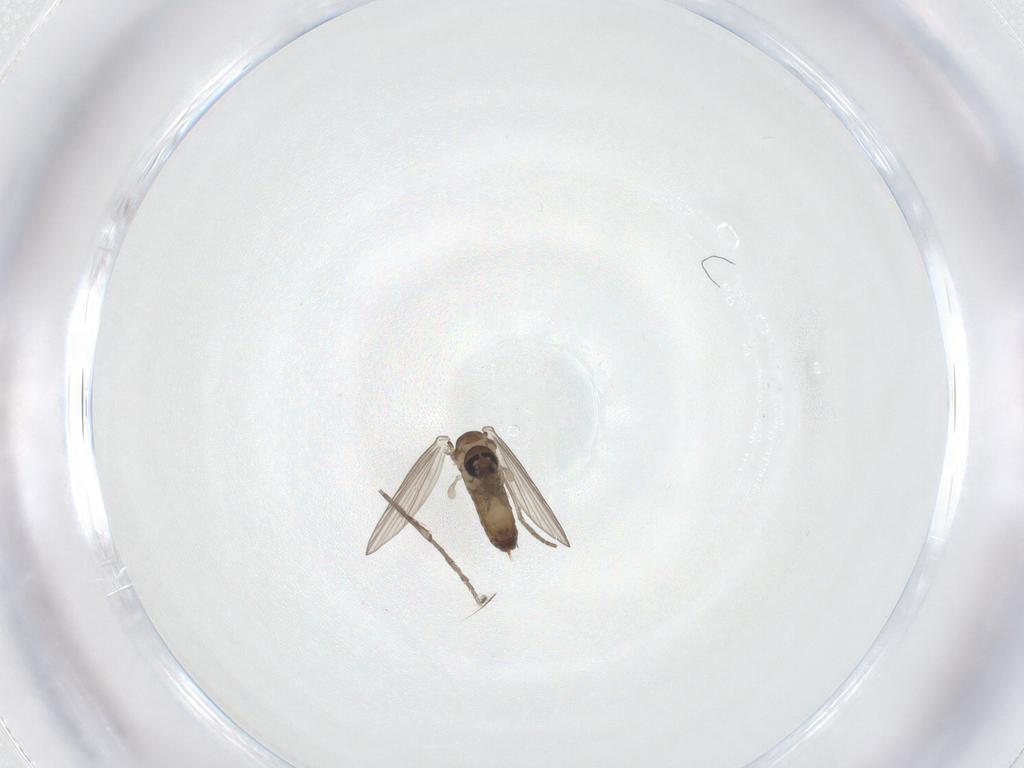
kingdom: Animalia
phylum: Arthropoda
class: Insecta
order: Diptera
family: Psychodidae
